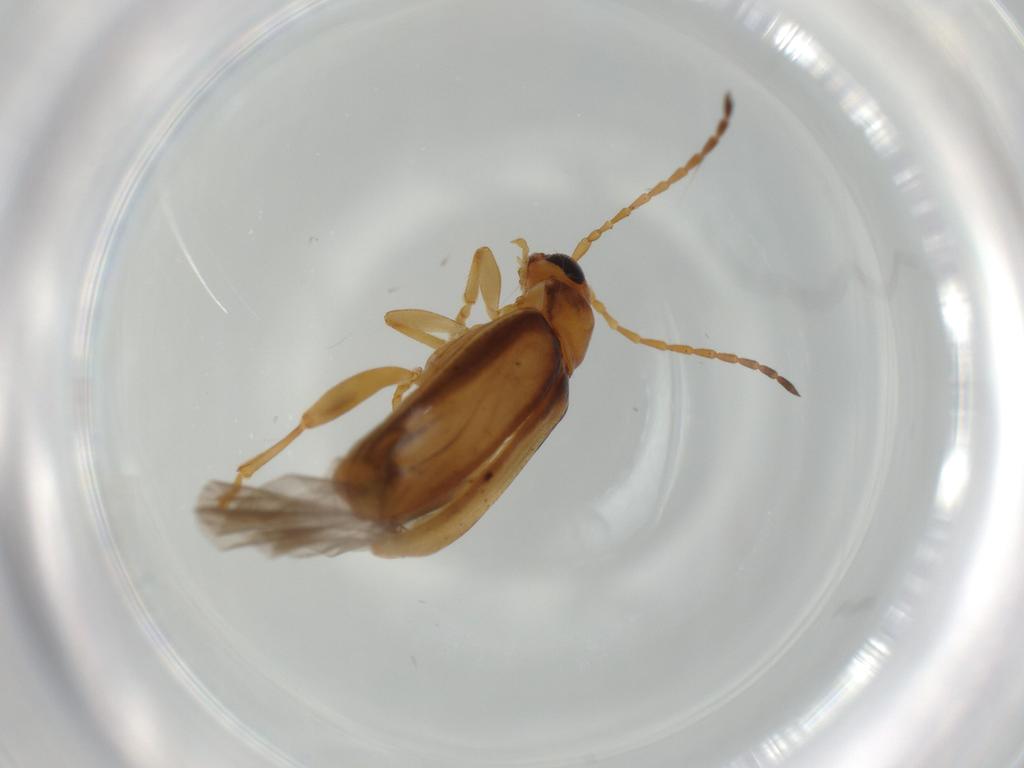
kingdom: Animalia
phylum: Arthropoda
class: Insecta
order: Coleoptera
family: Chrysomelidae
